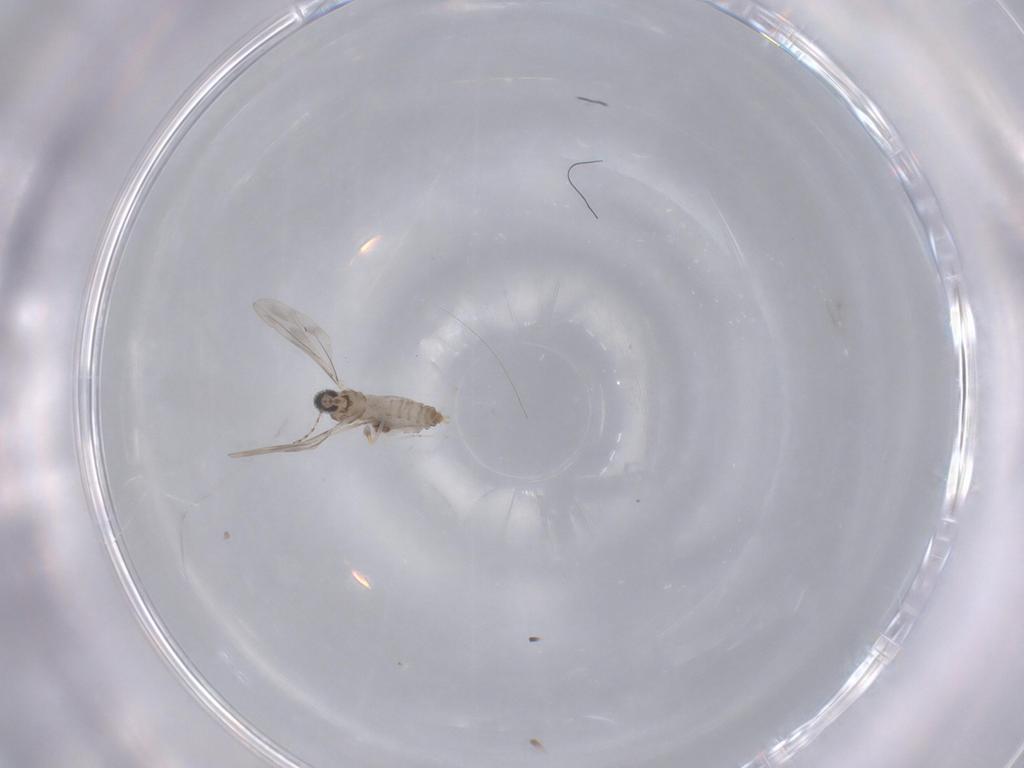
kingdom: Animalia
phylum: Arthropoda
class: Insecta
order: Diptera
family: Cecidomyiidae
